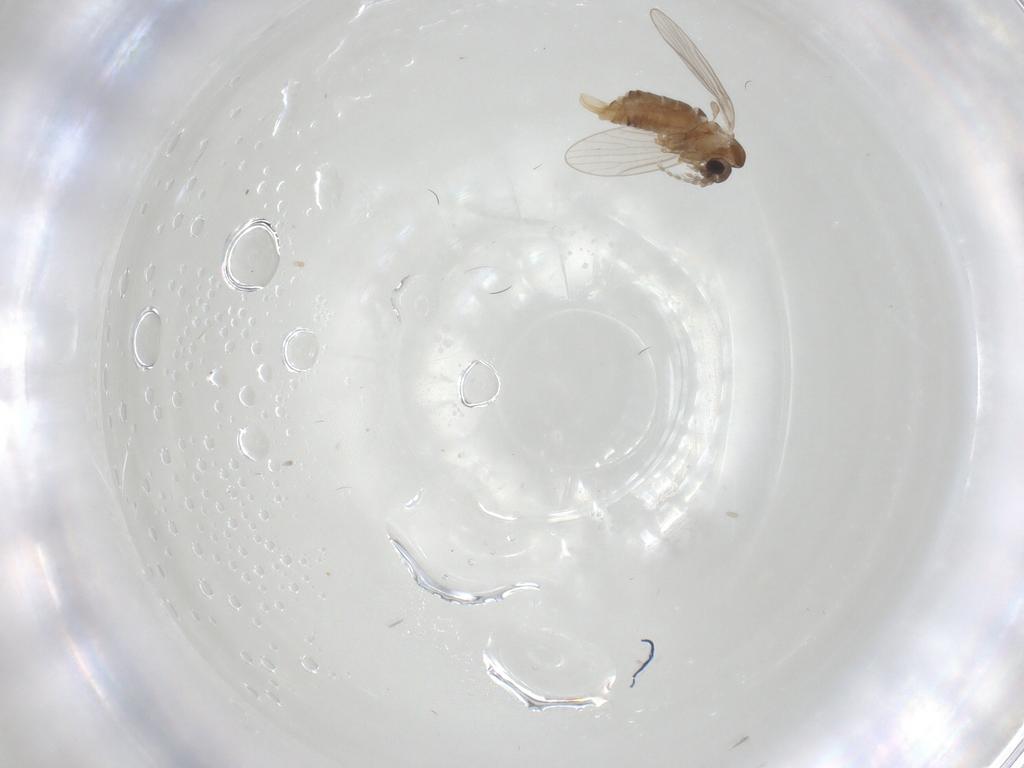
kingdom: Animalia
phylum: Arthropoda
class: Insecta
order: Diptera
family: Psychodidae
